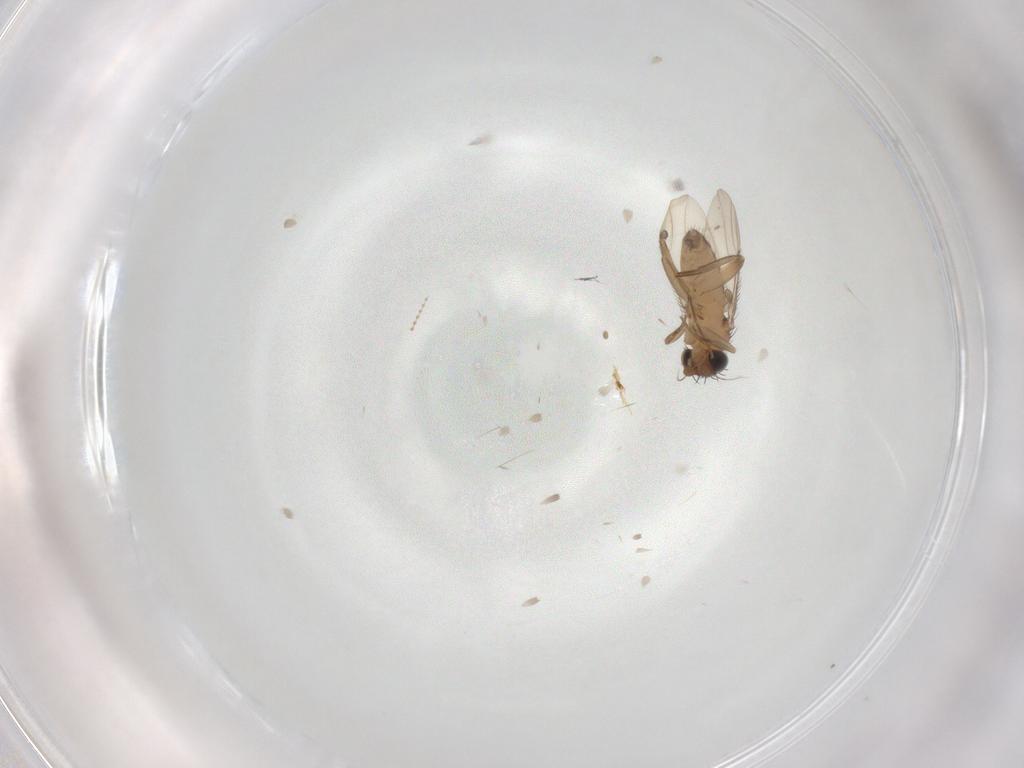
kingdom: Animalia
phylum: Arthropoda
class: Insecta
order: Diptera
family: Phoridae
